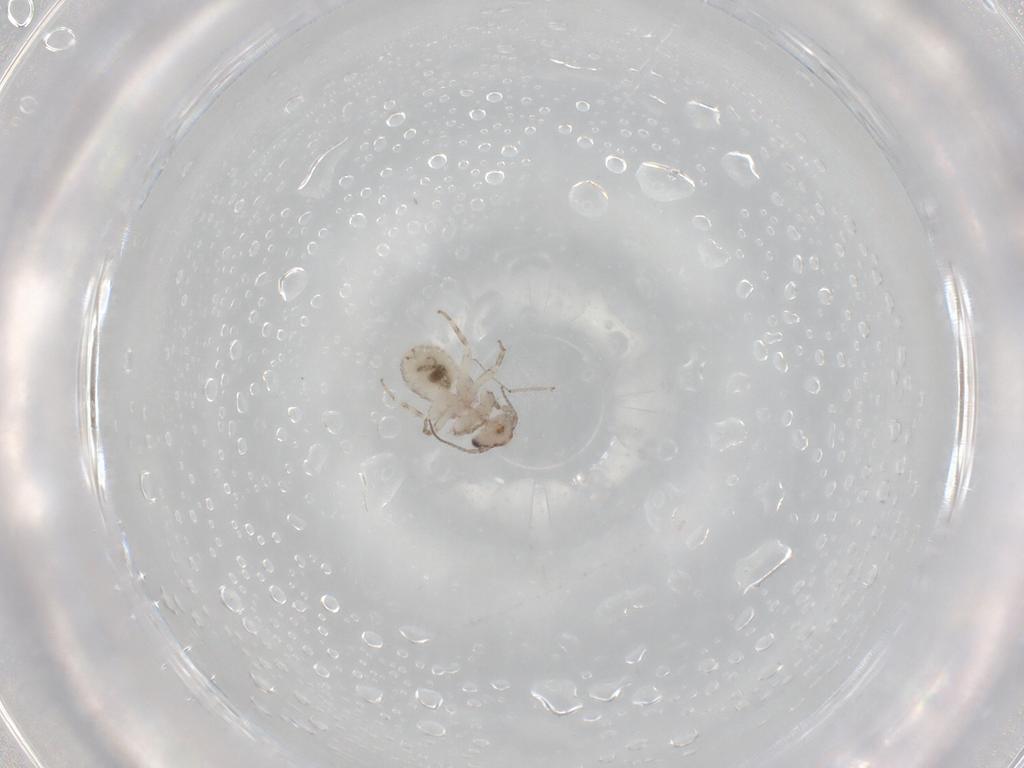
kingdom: Animalia
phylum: Arthropoda
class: Insecta
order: Psocodea
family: Lepidopsocidae
